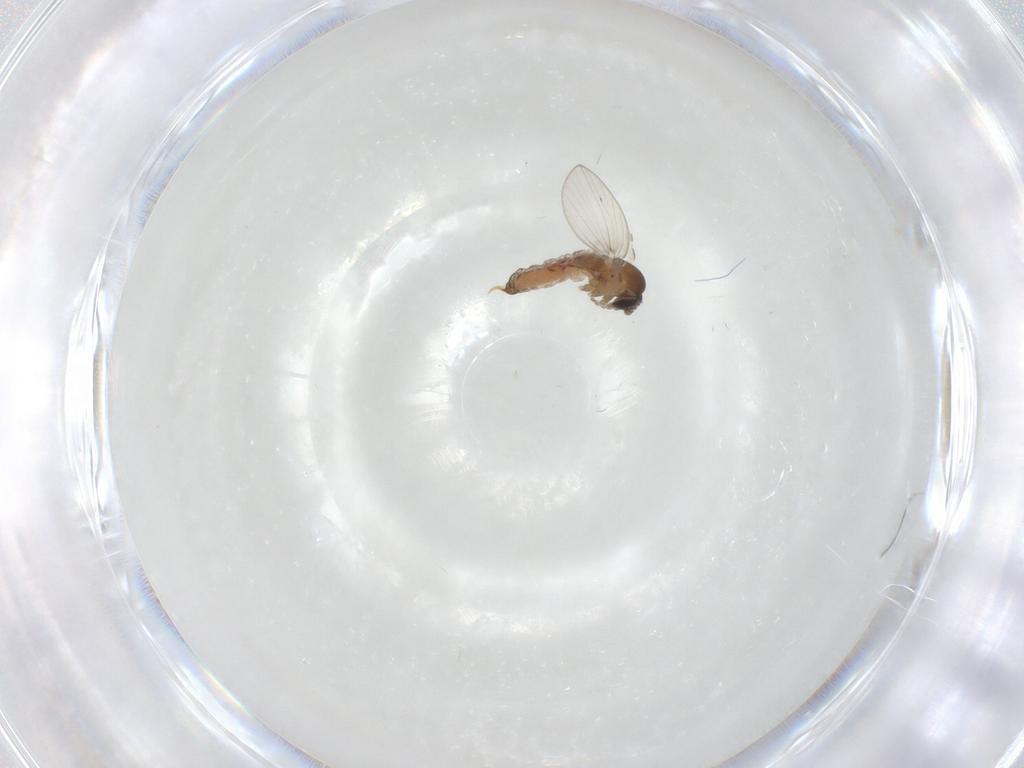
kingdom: Animalia
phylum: Arthropoda
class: Insecta
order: Diptera
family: Psychodidae
